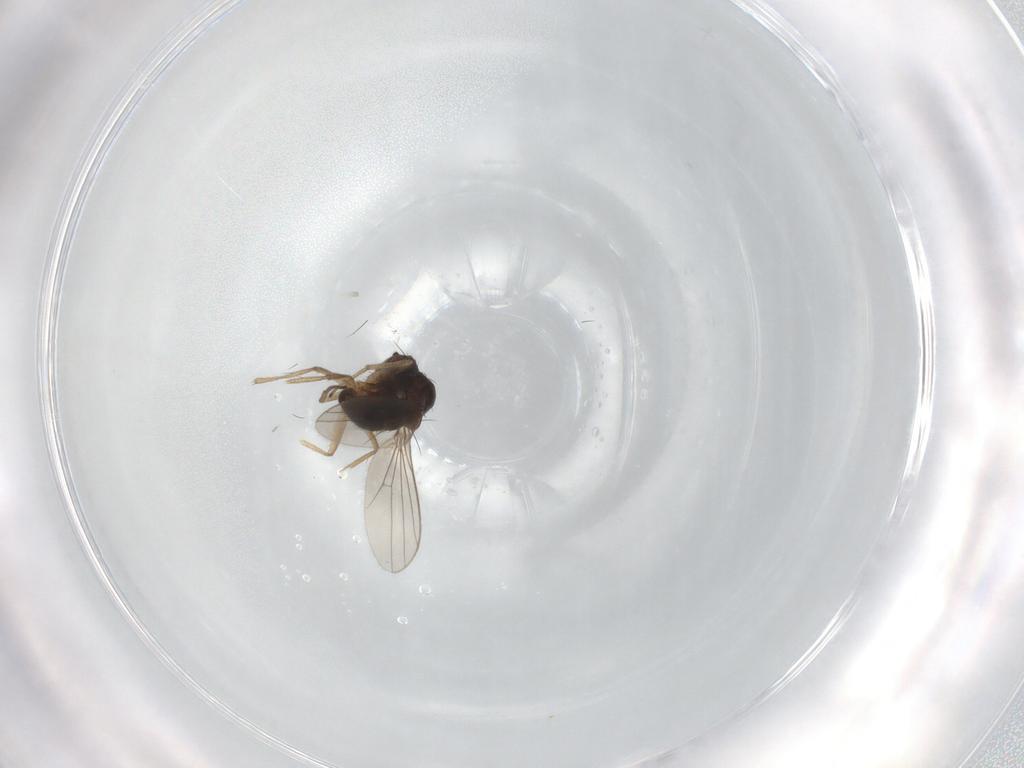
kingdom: Animalia
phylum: Arthropoda
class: Insecta
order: Diptera
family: Dolichopodidae
